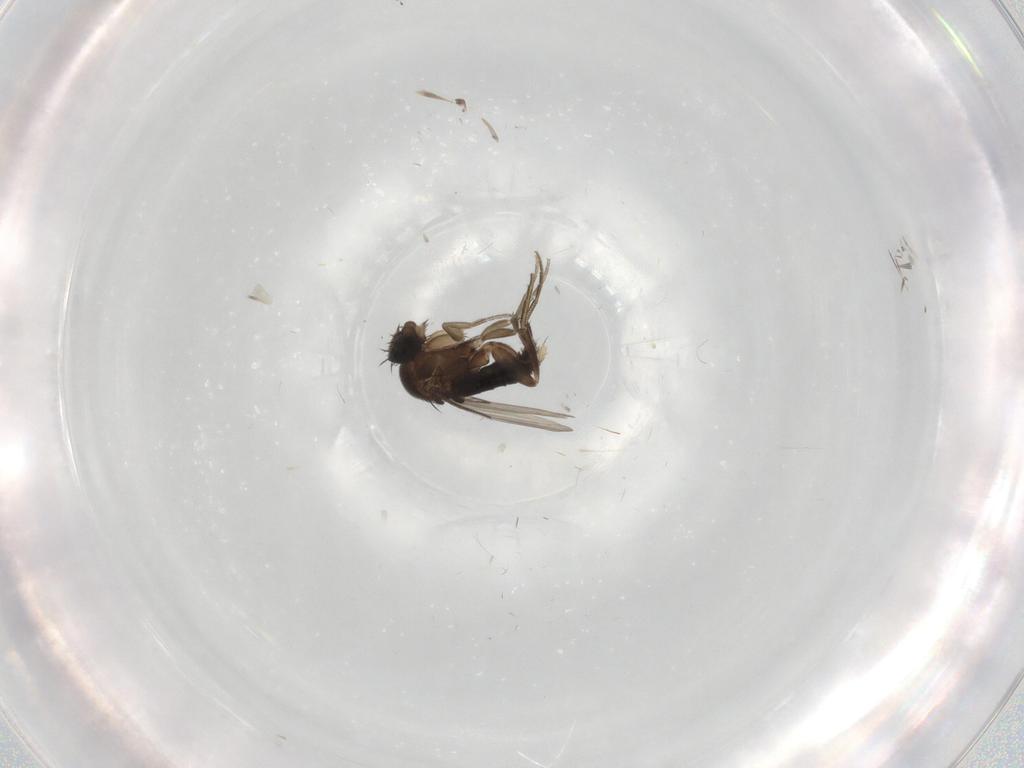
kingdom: Animalia
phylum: Arthropoda
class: Insecta
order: Diptera
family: Phoridae
